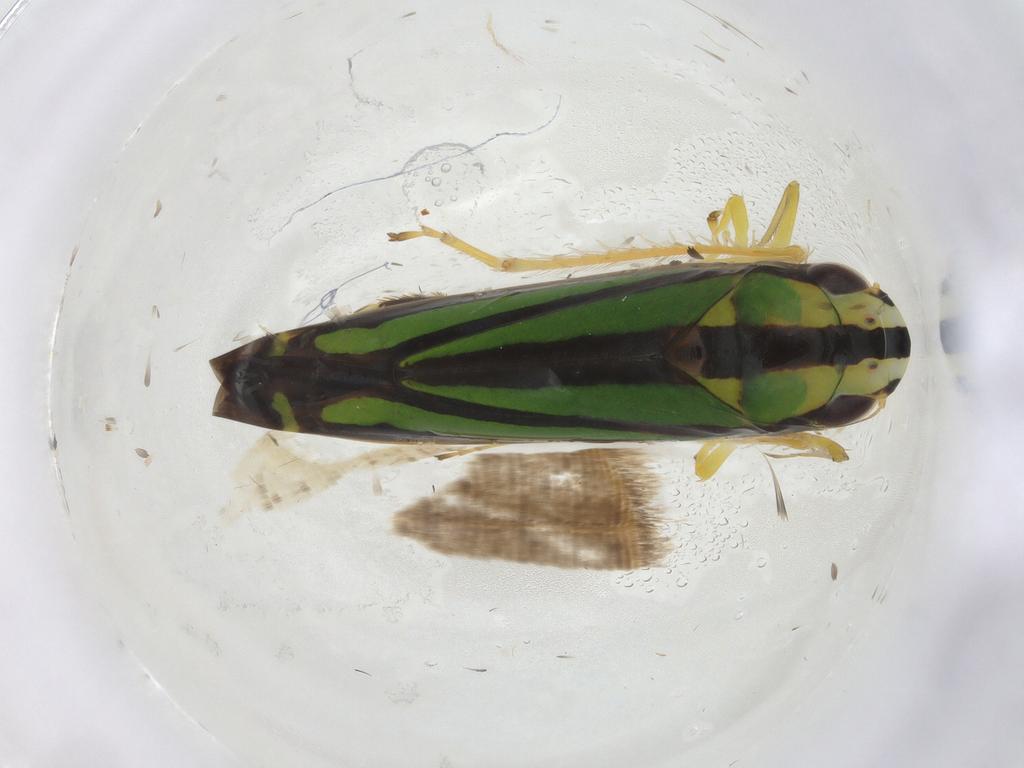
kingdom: Animalia
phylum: Arthropoda
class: Insecta
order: Hemiptera
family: Cicadellidae
